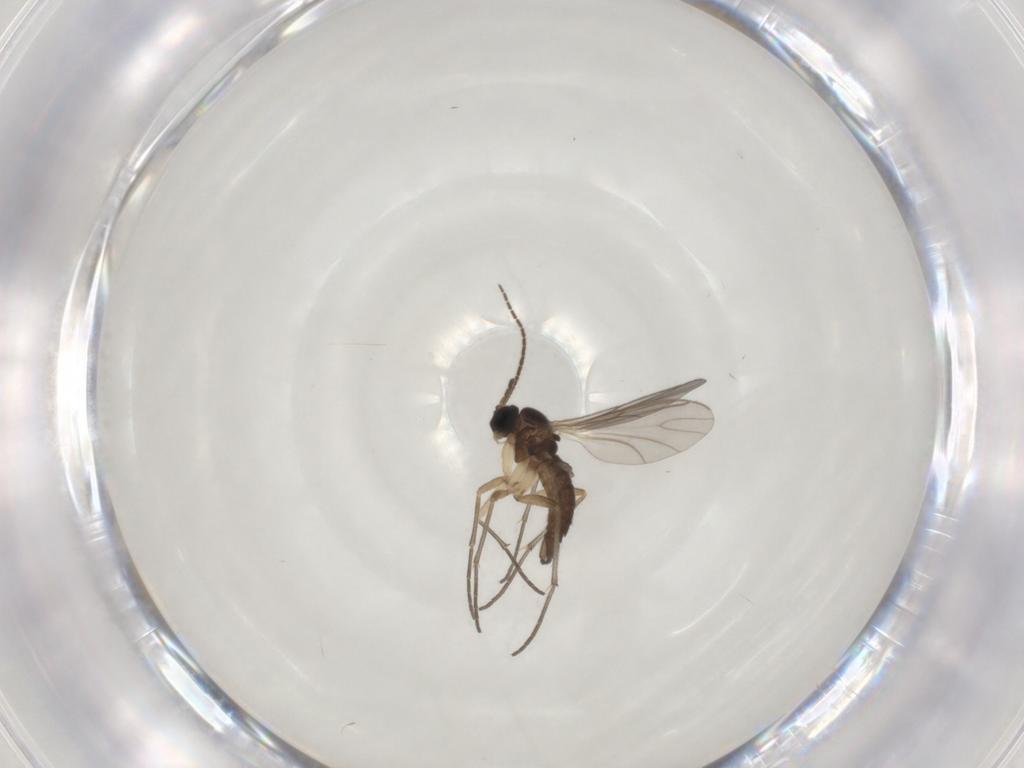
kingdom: Animalia
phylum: Arthropoda
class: Insecta
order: Diptera
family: Sciaridae
